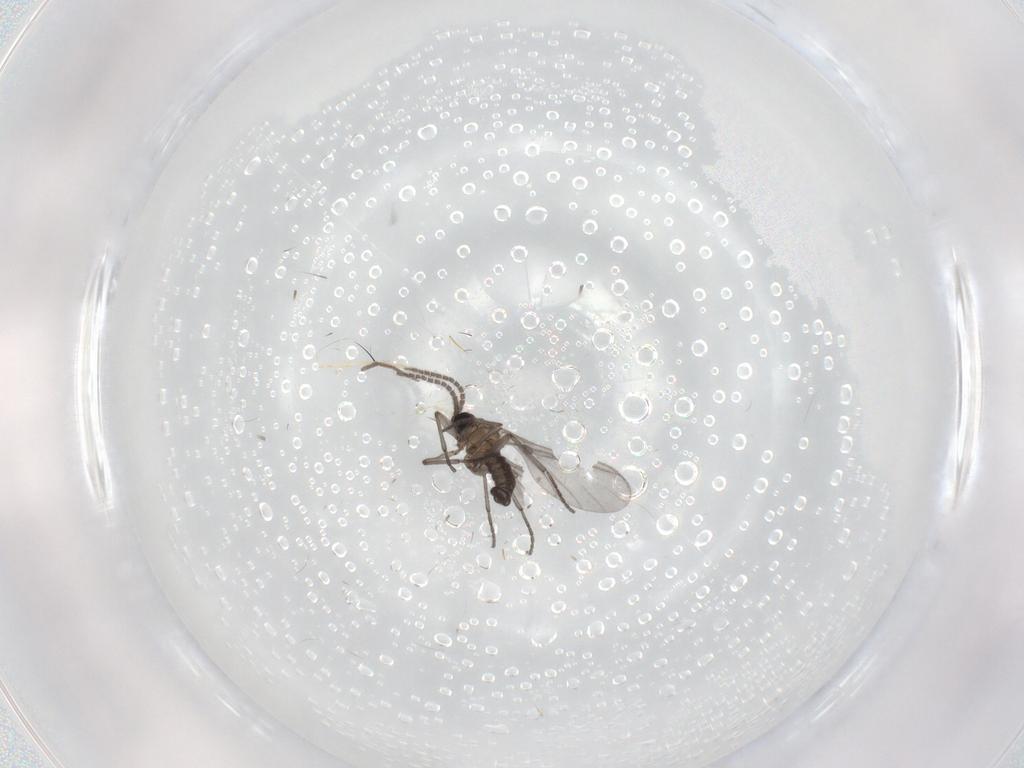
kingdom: Animalia
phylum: Arthropoda
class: Insecta
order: Diptera
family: Sciaridae
